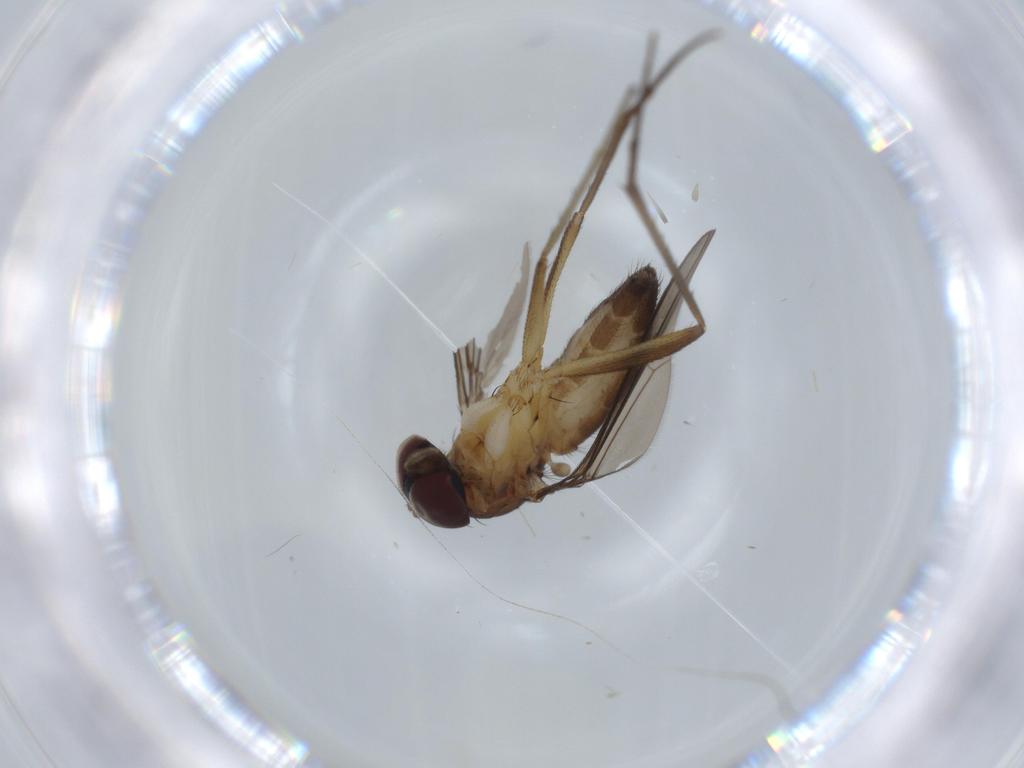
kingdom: Animalia
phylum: Arthropoda
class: Insecta
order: Diptera
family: Dolichopodidae
